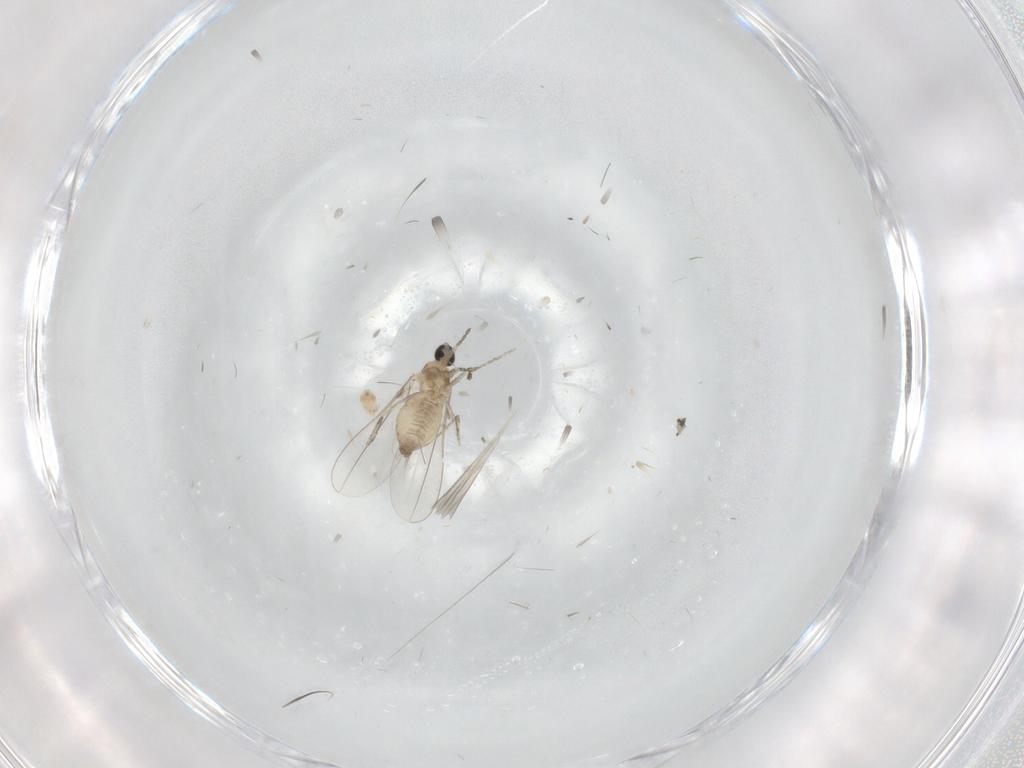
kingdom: Animalia
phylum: Arthropoda
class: Insecta
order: Diptera
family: Cecidomyiidae
